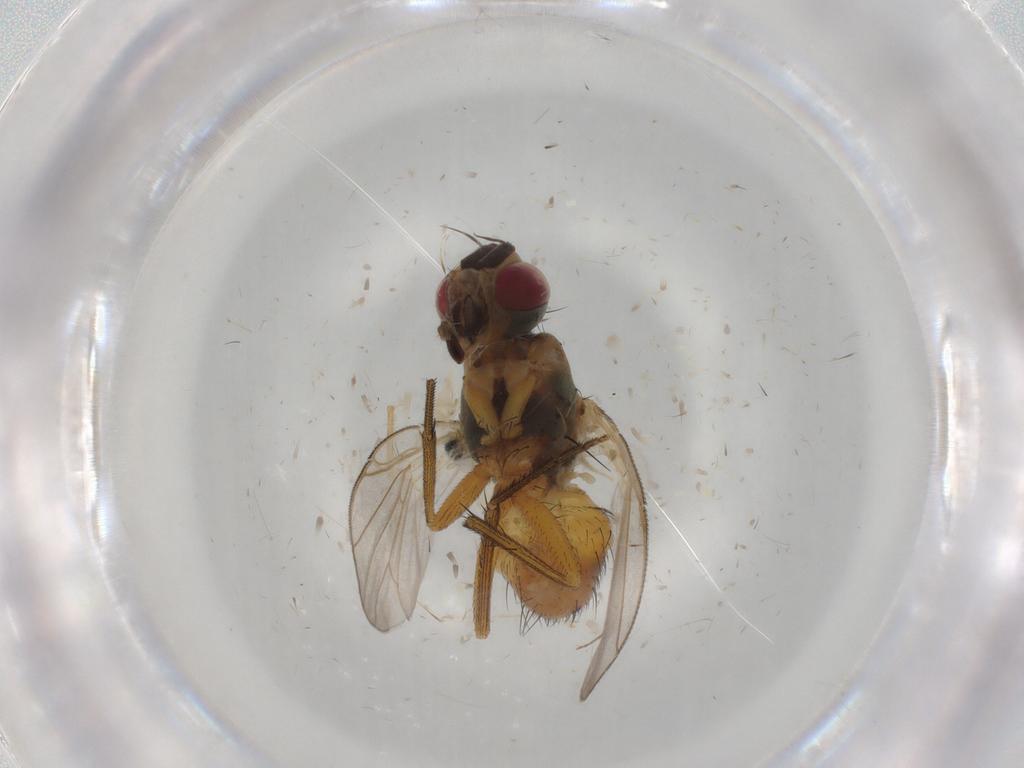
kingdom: Animalia
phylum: Arthropoda
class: Insecta
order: Diptera
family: Muscidae
